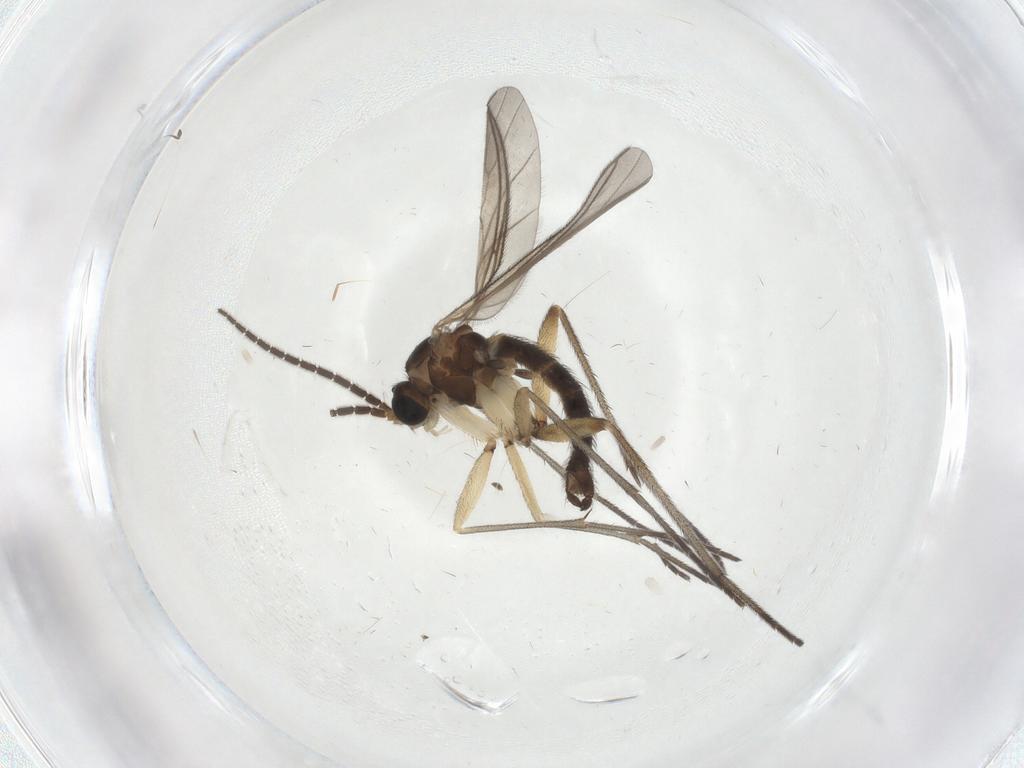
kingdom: Animalia
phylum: Arthropoda
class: Insecta
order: Diptera
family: Sciaridae
